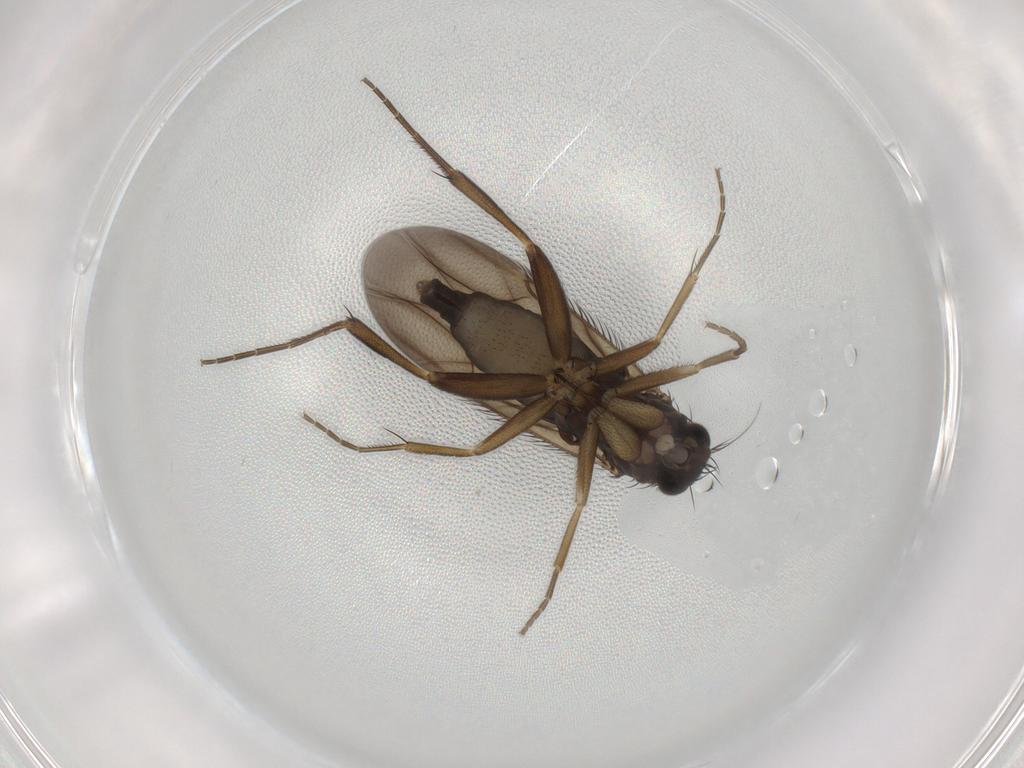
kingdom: Animalia
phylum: Arthropoda
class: Insecta
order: Diptera
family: Phoridae
